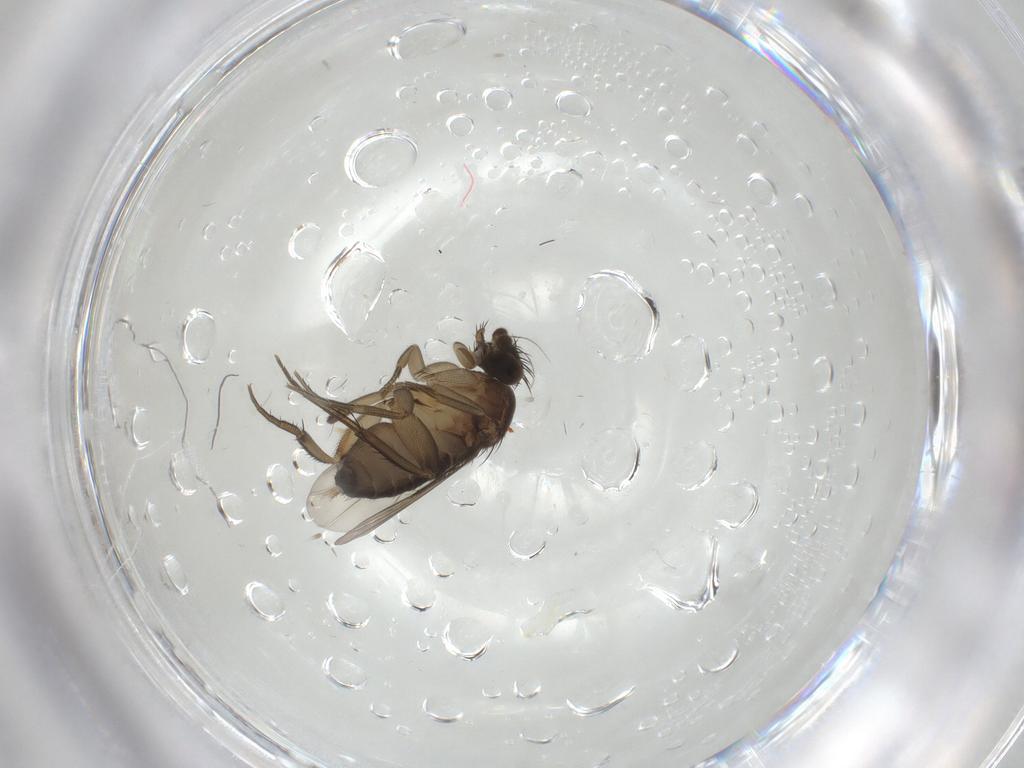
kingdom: Animalia
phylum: Arthropoda
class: Insecta
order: Diptera
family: Phoridae
